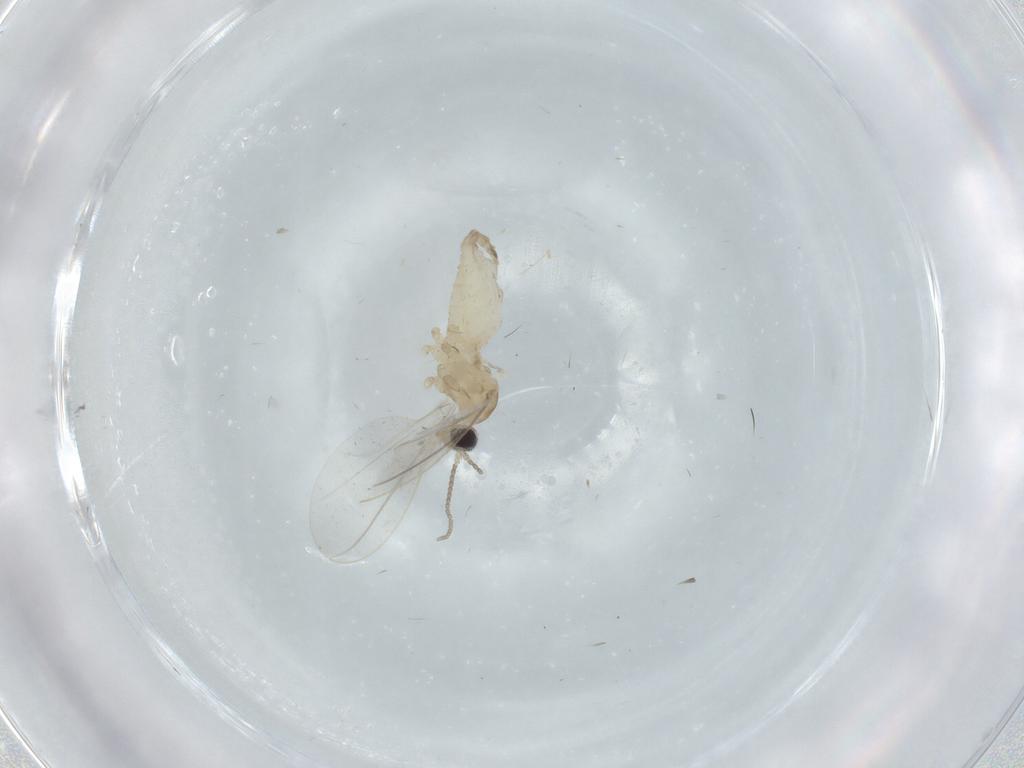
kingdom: Animalia
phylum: Arthropoda
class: Insecta
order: Diptera
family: Cecidomyiidae
